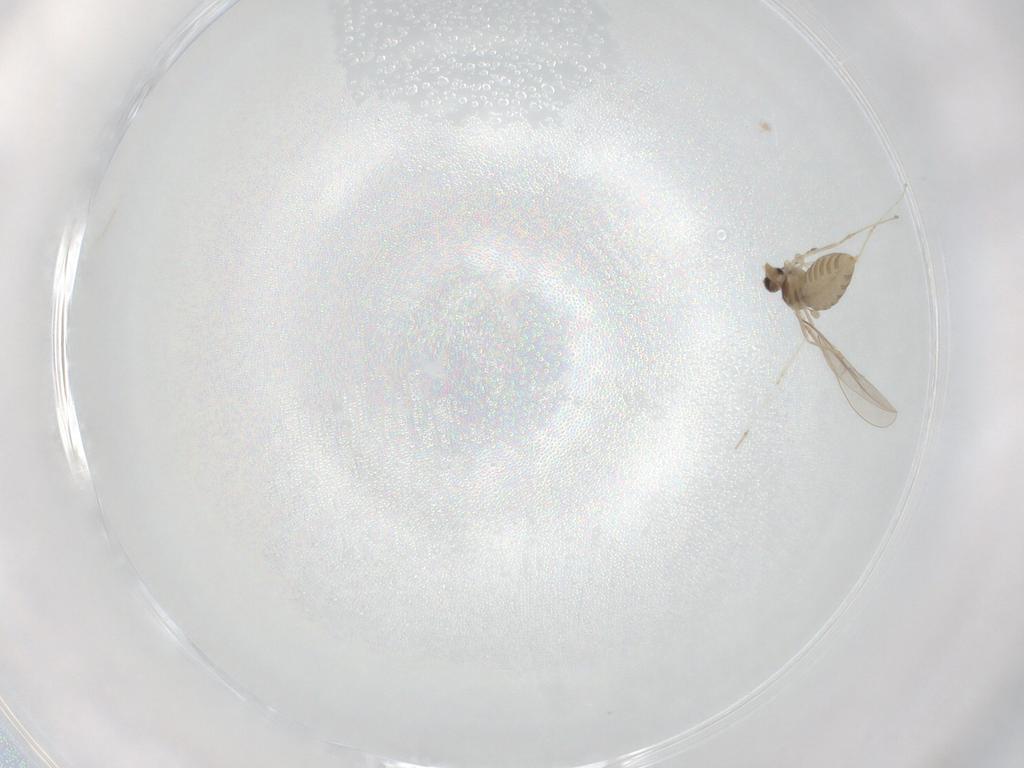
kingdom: Animalia
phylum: Arthropoda
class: Insecta
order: Diptera
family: Cecidomyiidae
